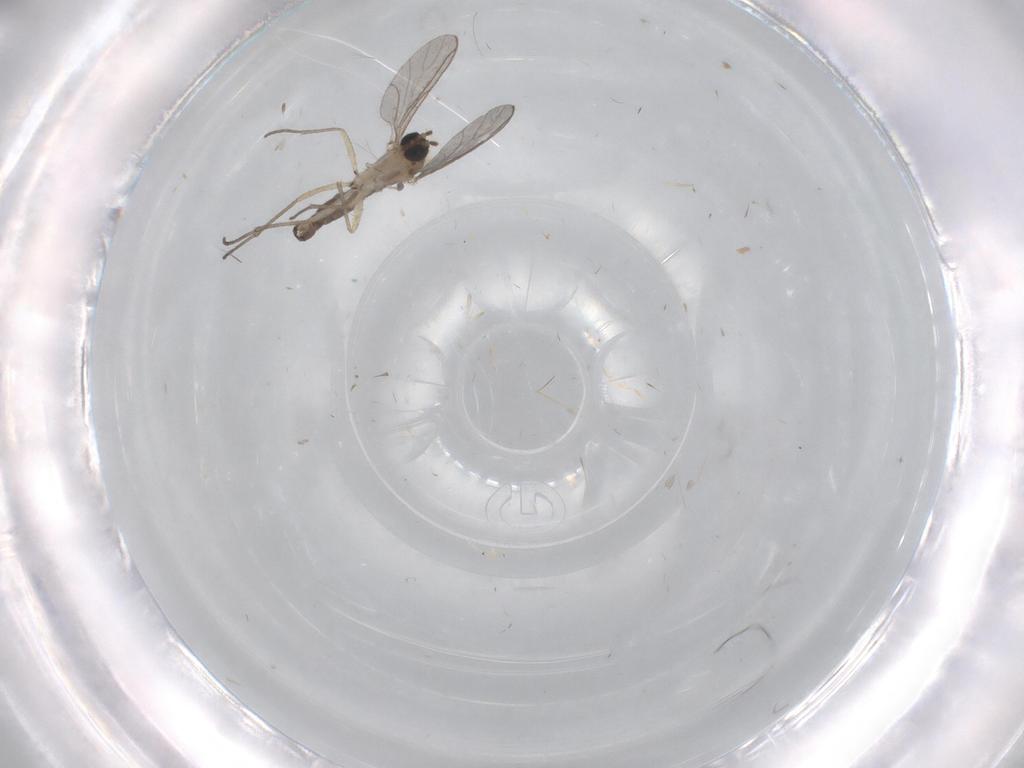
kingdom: Animalia
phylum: Arthropoda
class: Insecta
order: Diptera
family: Sciaridae
